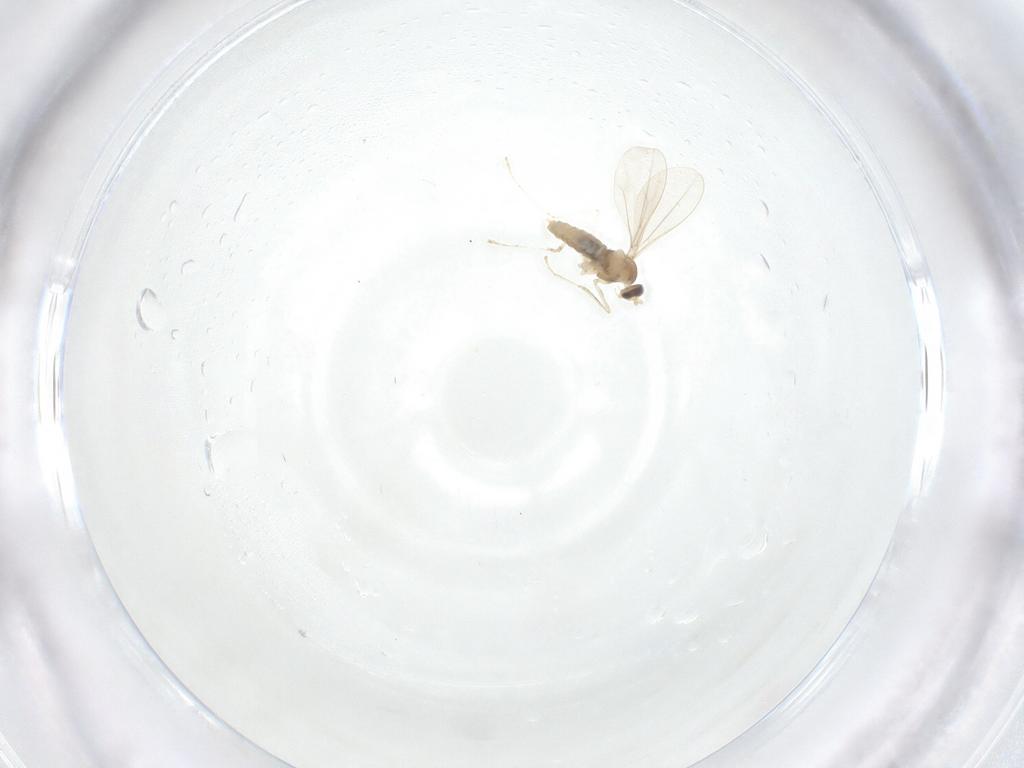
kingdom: Animalia
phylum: Arthropoda
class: Insecta
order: Diptera
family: Cecidomyiidae
